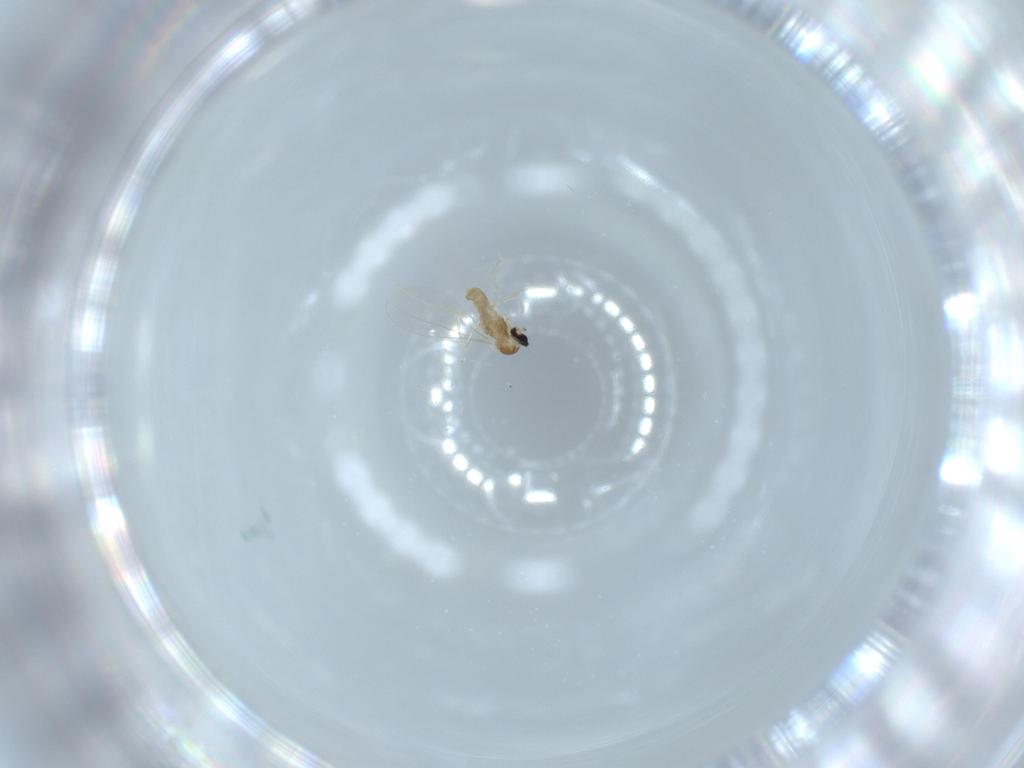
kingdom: Animalia
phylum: Arthropoda
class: Insecta
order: Diptera
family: Cecidomyiidae
